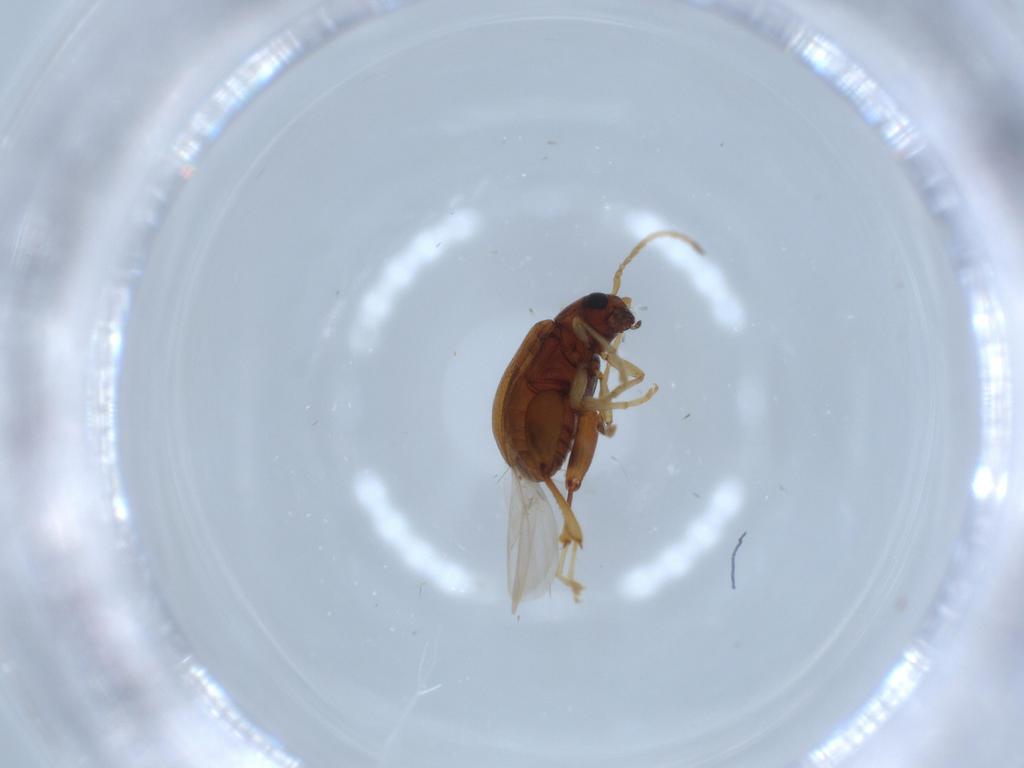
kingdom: Animalia
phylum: Arthropoda
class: Insecta
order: Coleoptera
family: Chrysomelidae
